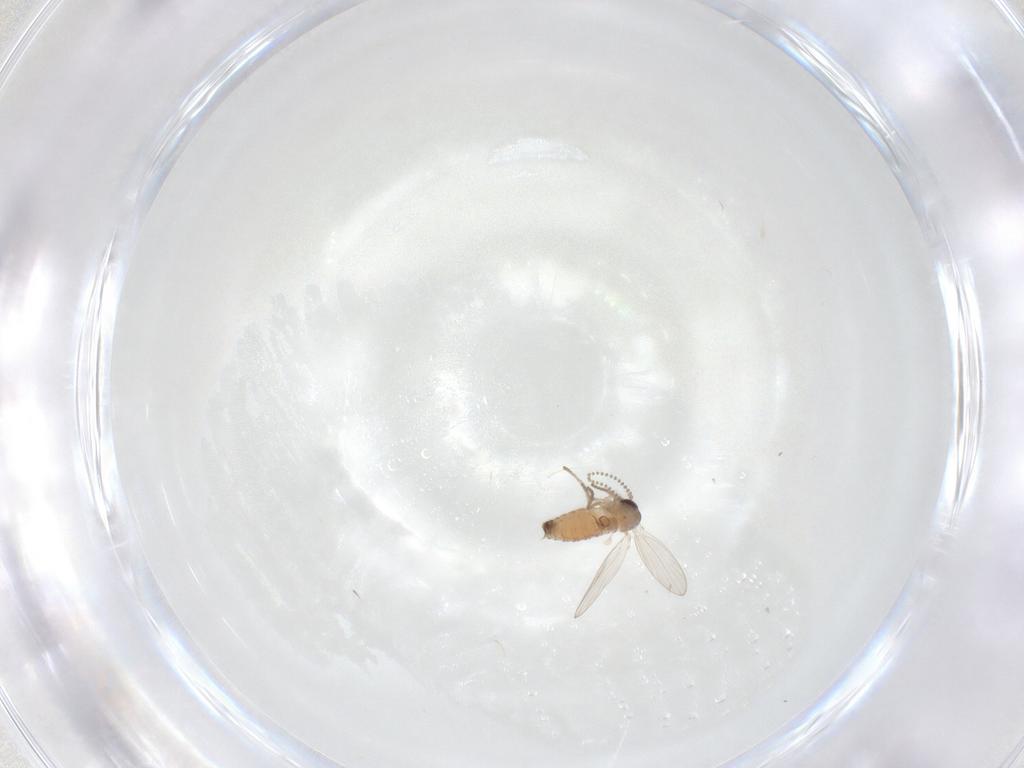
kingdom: Animalia
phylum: Arthropoda
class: Insecta
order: Diptera
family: Psychodidae
